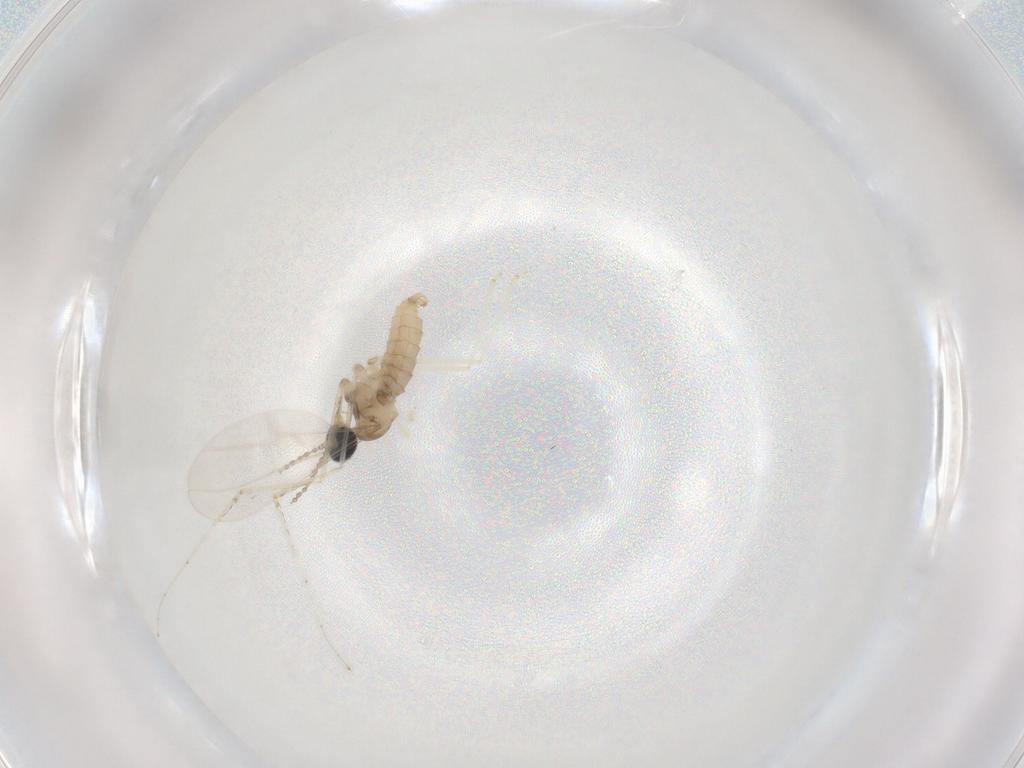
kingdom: Animalia
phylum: Arthropoda
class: Insecta
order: Diptera
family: Cecidomyiidae
